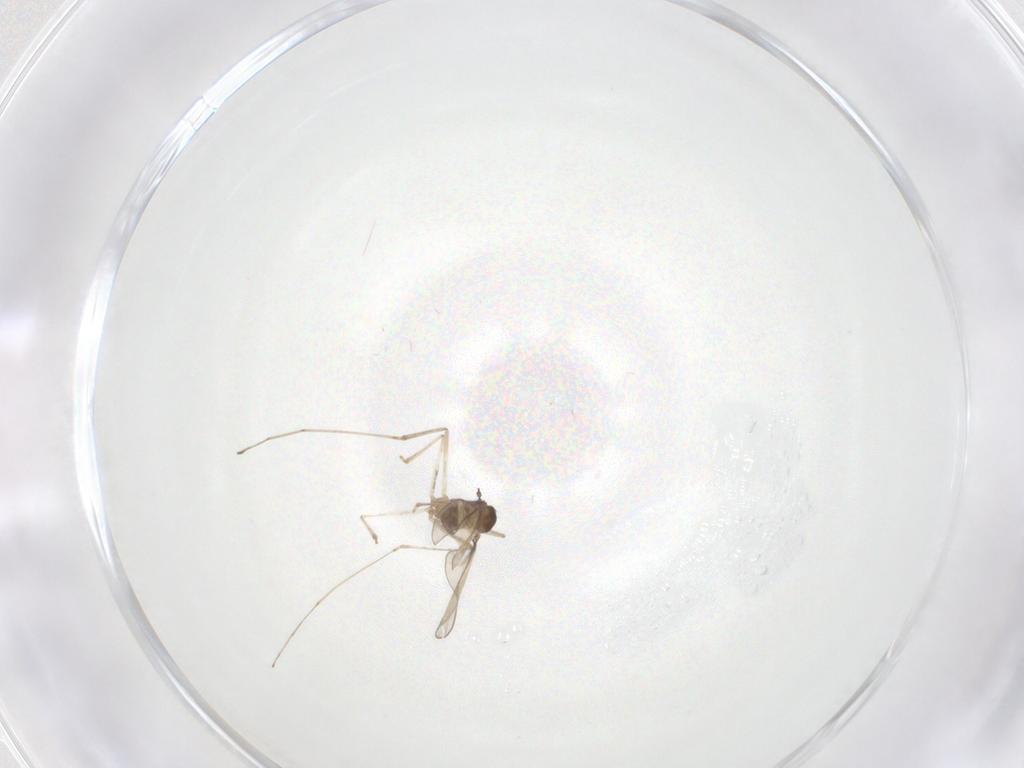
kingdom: Animalia
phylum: Arthropoda
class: Insecta
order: Diptera
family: Cecidomyiidae
